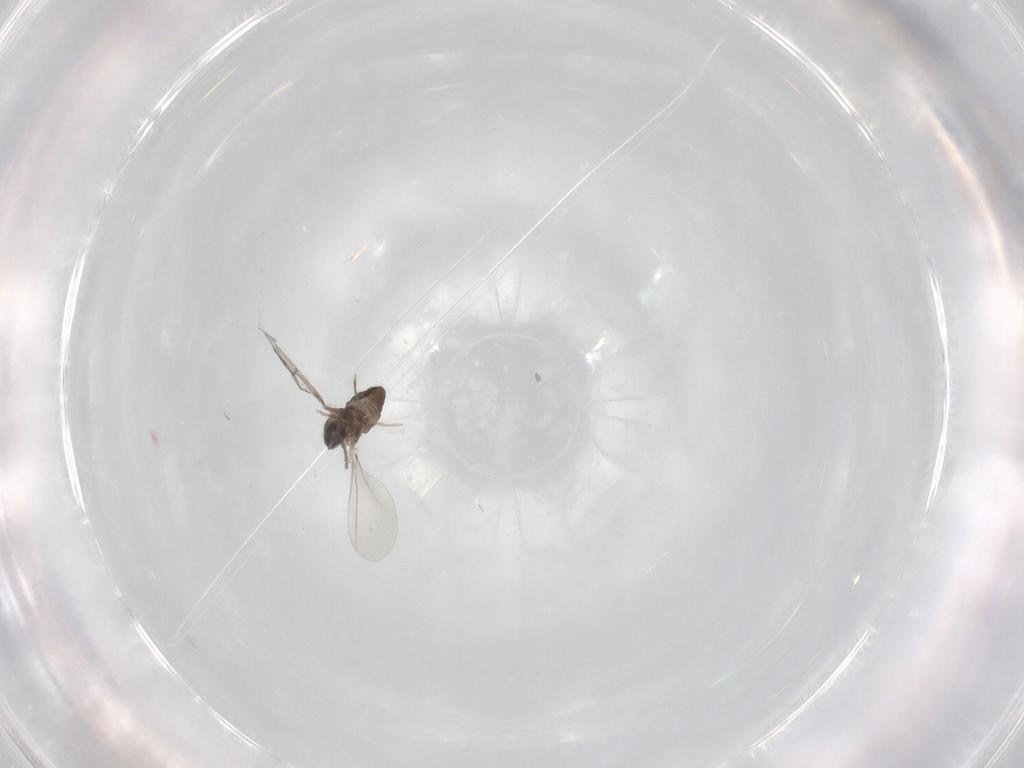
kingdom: Animalia
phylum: Arthropoda
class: Insecta
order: Diptera
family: Cecidomyiidae
